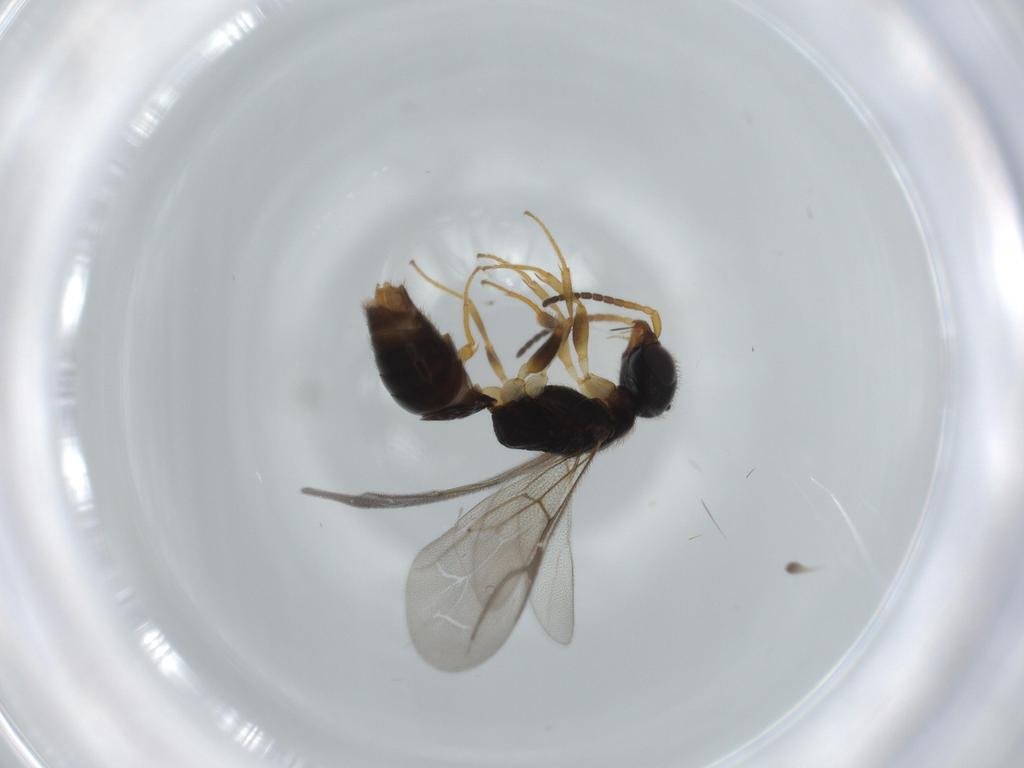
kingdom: Animalia
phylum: Arthropoda
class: Insecta
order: Hymenoptera
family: Bethylidae
